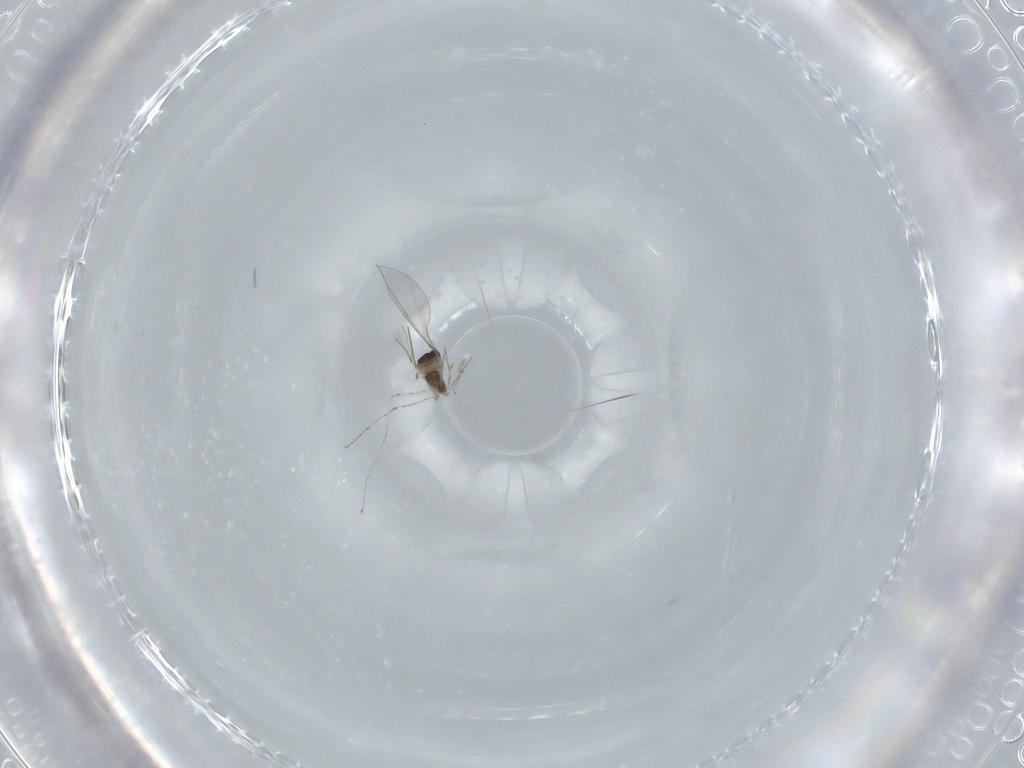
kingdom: Animalia
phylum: Arthropoda
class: Insecta
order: Diptera
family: Cecidomyiidae
